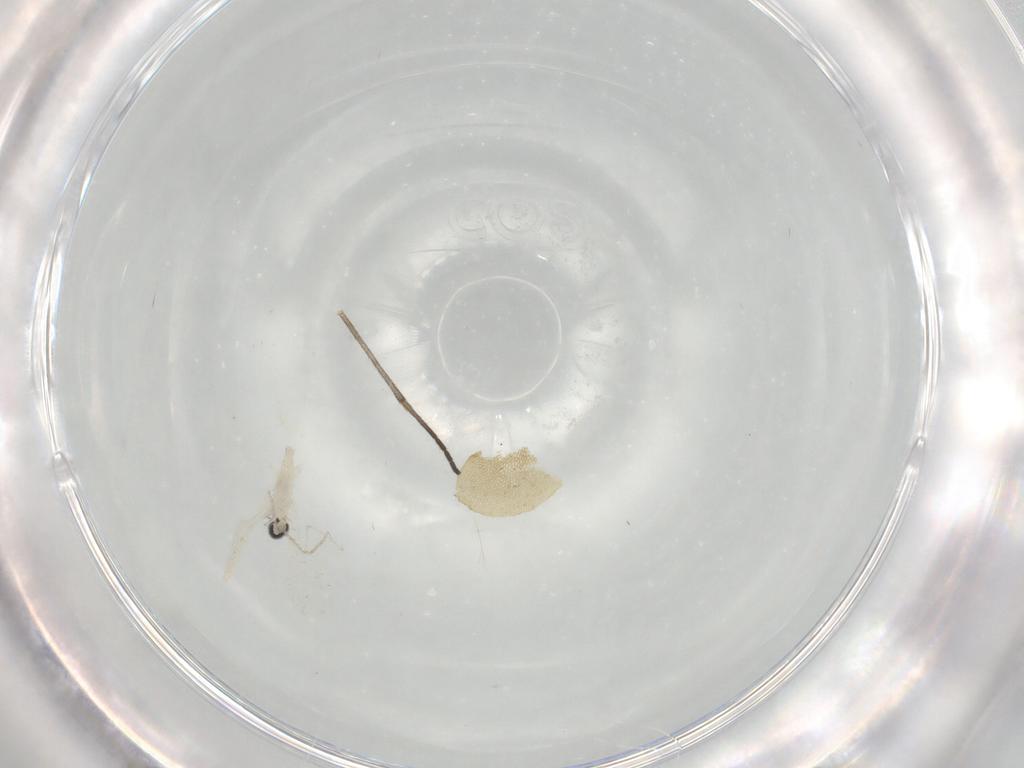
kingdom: Animalia
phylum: Arthropoda
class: Insecta
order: Diptera
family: Sciaridae
